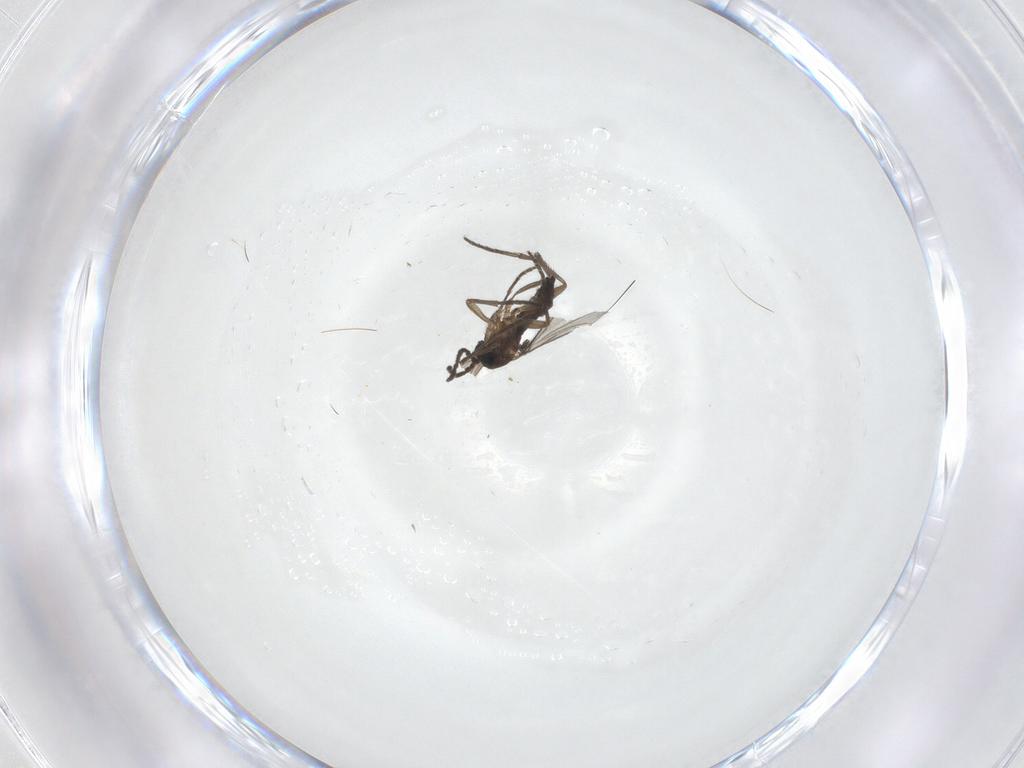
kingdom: Animalia
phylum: Arthropoda
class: Insecta
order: Diptera
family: Sciaridae
